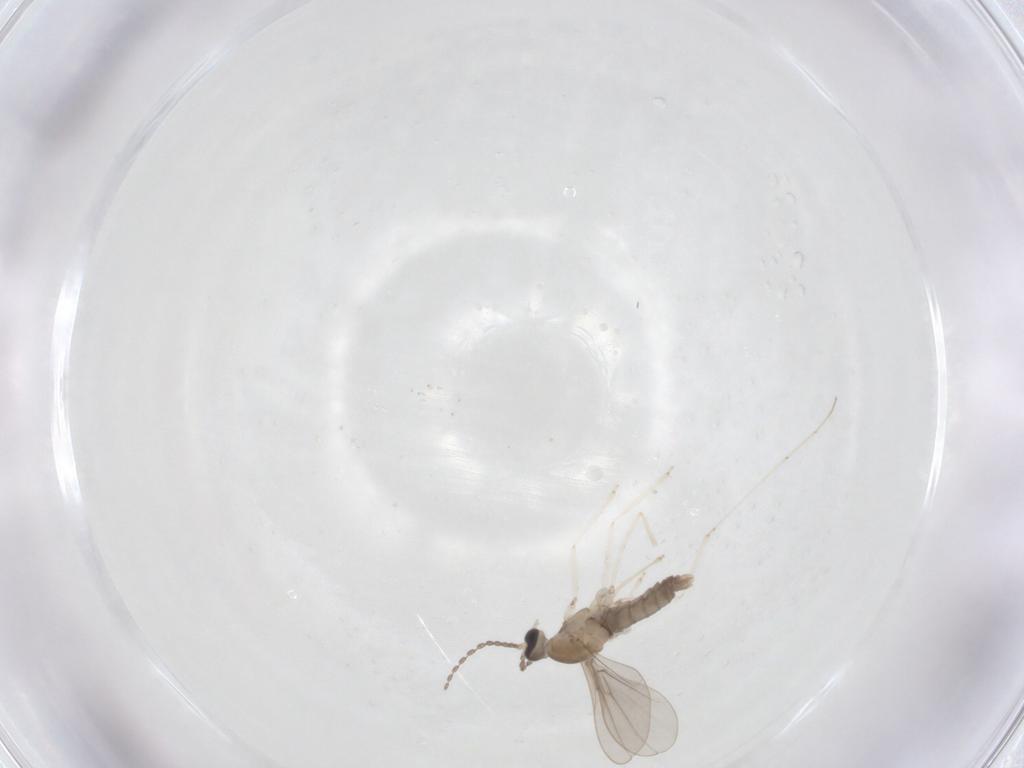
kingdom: Animalia
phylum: Arthropoda
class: Insecta
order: Diptera
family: Cecidomyiidae
